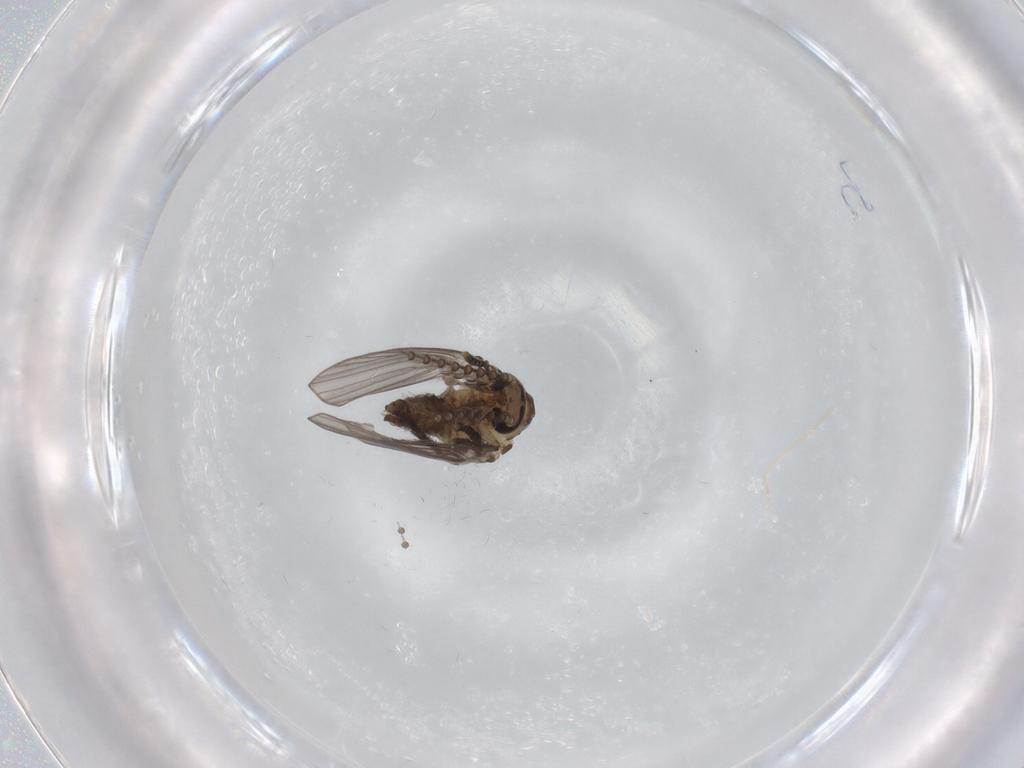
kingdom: Animalia
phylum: Arthropoda
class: Insecta
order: Diptera
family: Psychodidae
